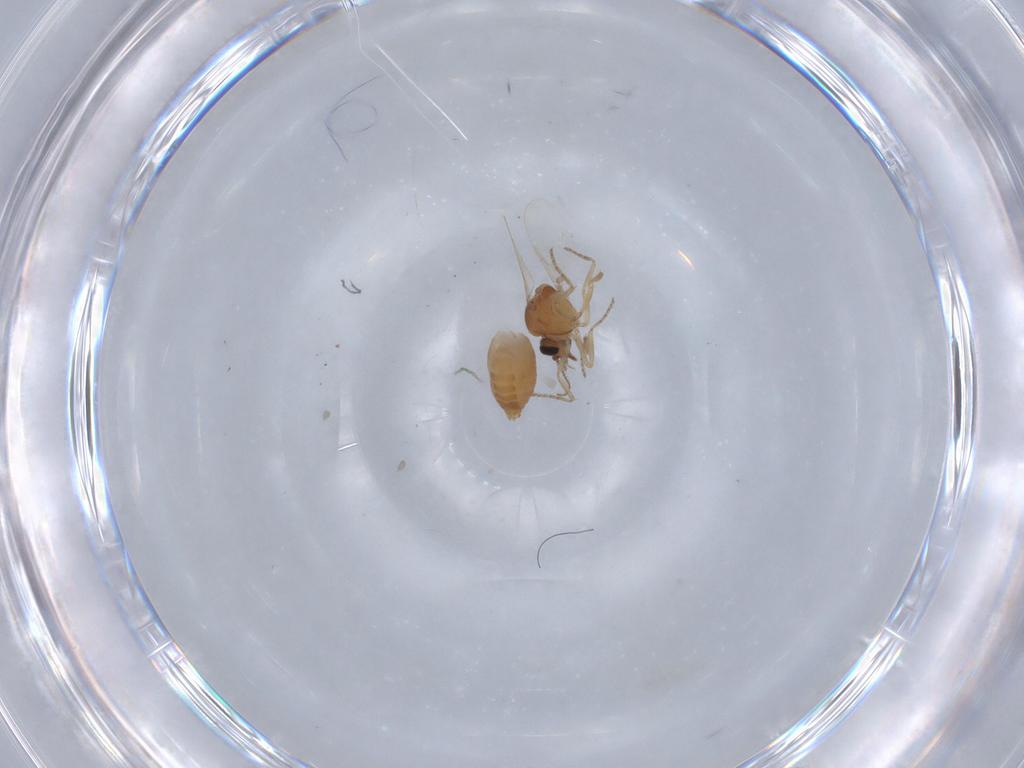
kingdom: Animalia
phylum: Arthropoda
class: Insecta
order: Diptera
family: Ceratopogonidae
